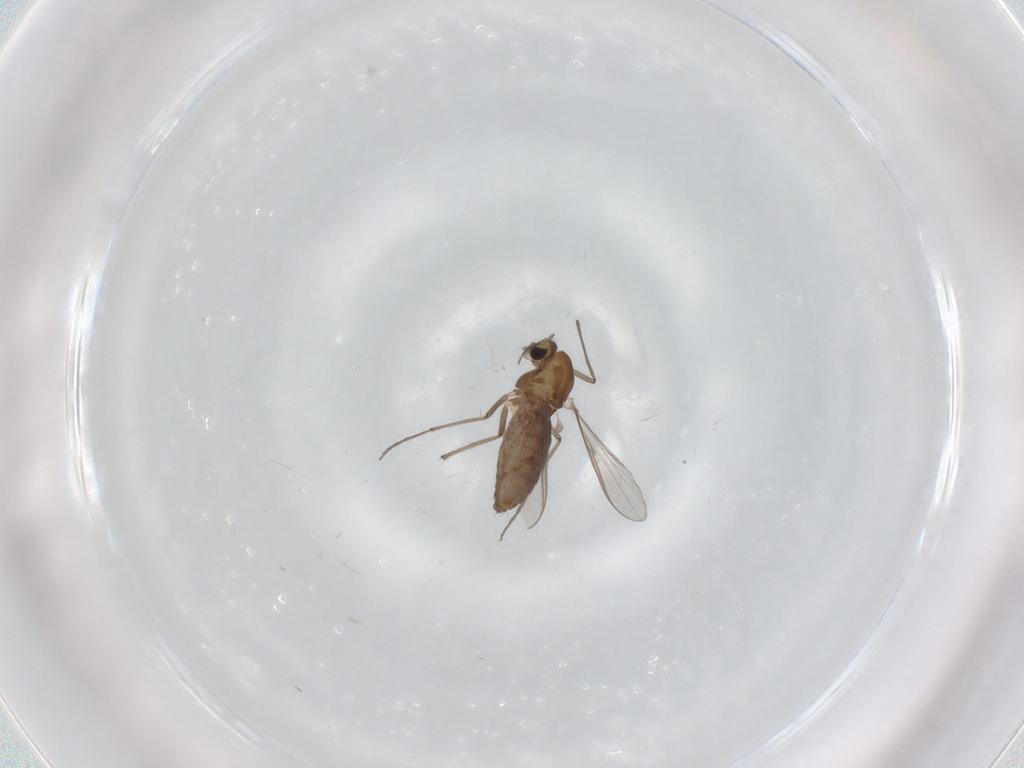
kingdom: Animalia
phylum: Arthropoda
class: Insecta
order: Diptera
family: Chironomidae
